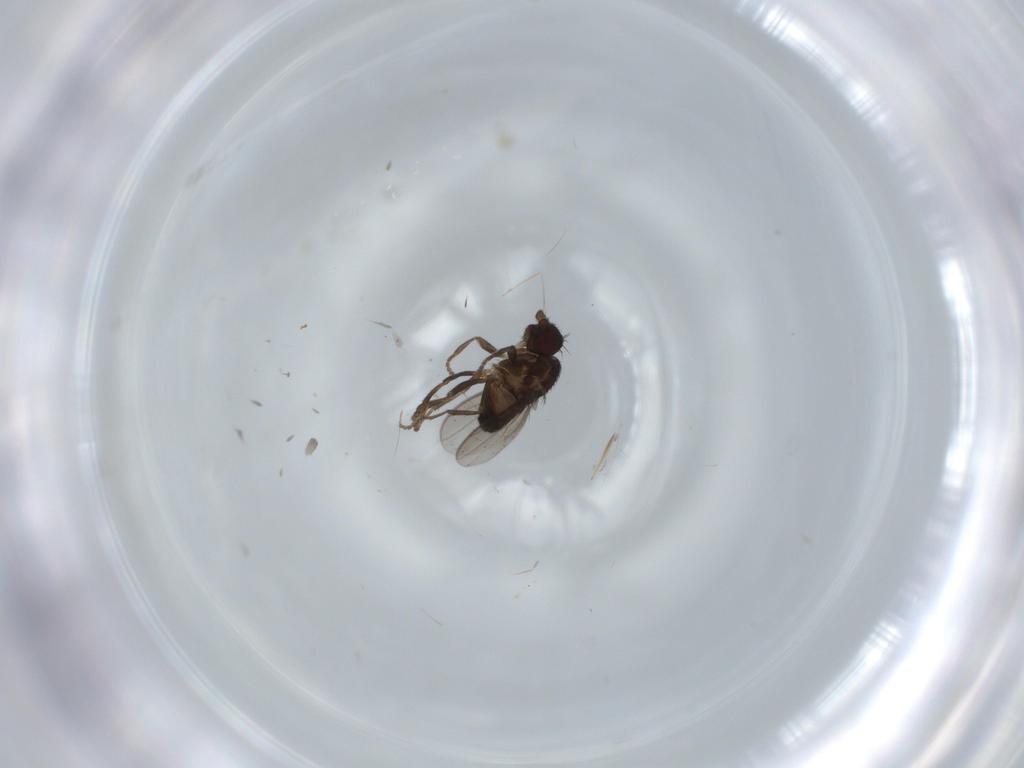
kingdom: Animalia
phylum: Arthropoda
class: Insecta
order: Diptera
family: Sphaeroceridae
